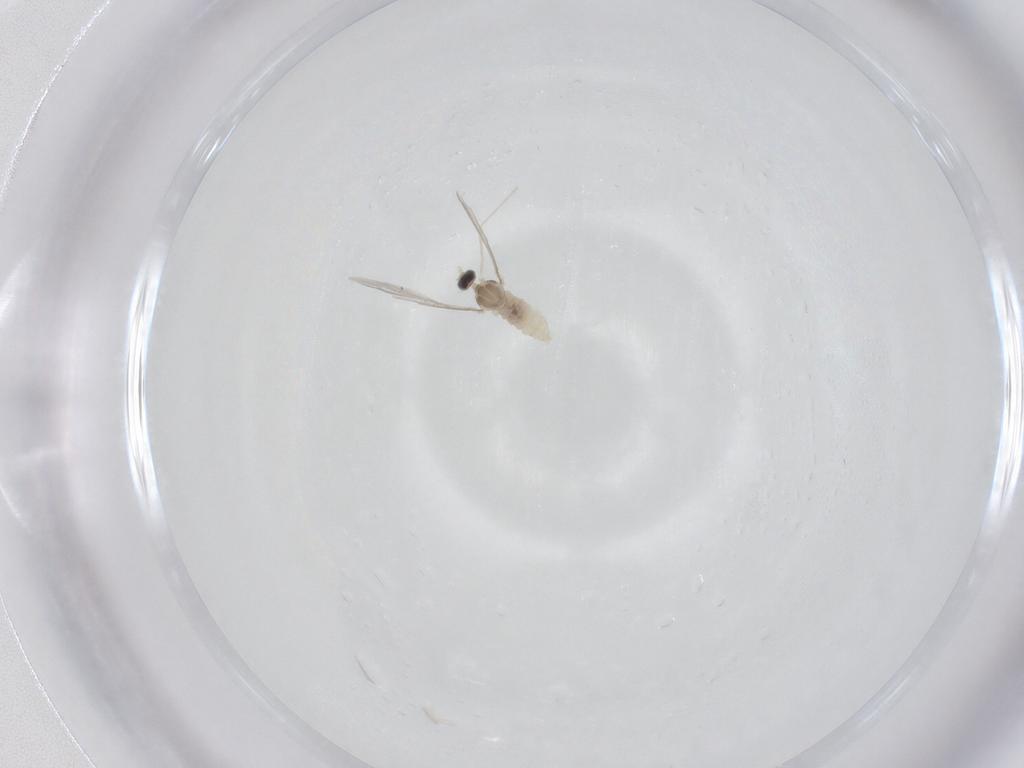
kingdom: Animalia
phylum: Arthropoda
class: Insecta
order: Diptera
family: Cecidomyiidae
